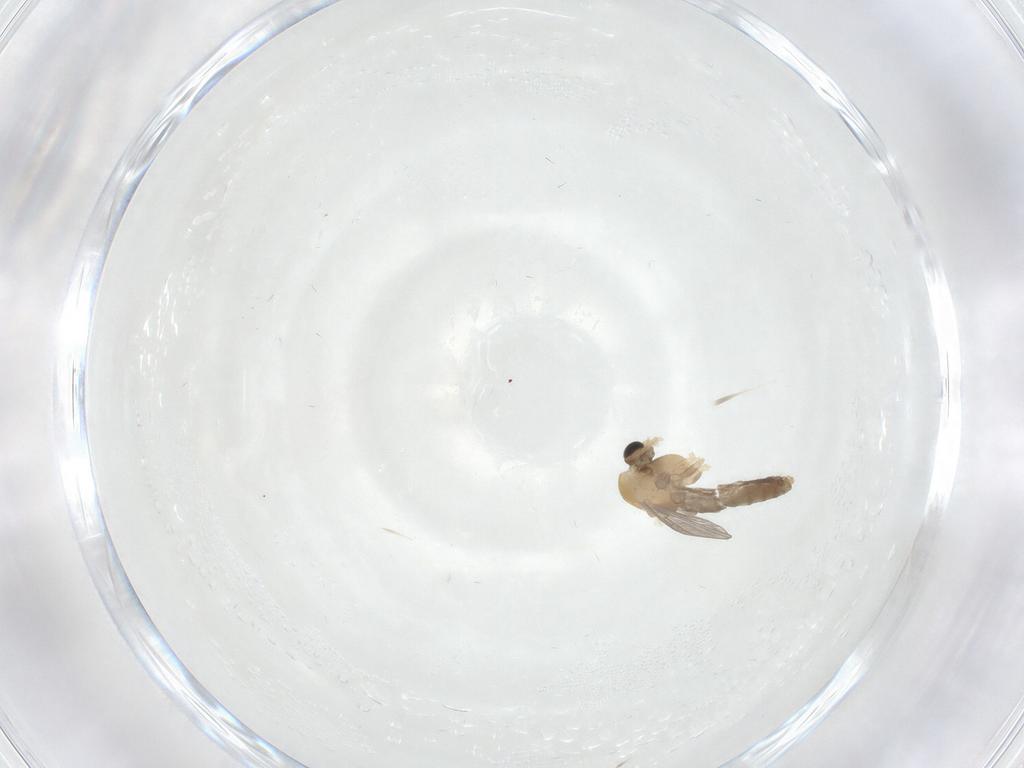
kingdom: Animalia
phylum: Arthropoda
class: Insecta
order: Diptera
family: Chironomidae
